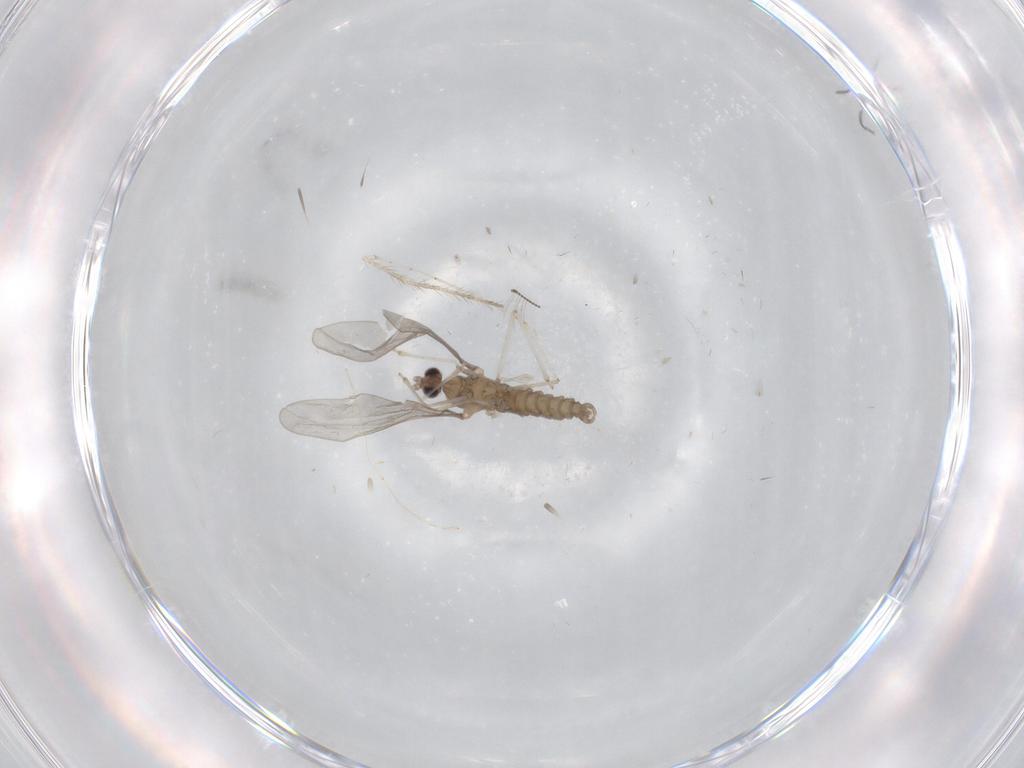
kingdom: Animalia
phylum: Arthropoda
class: Insecta
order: Diptera
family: Cecidomyiidae
